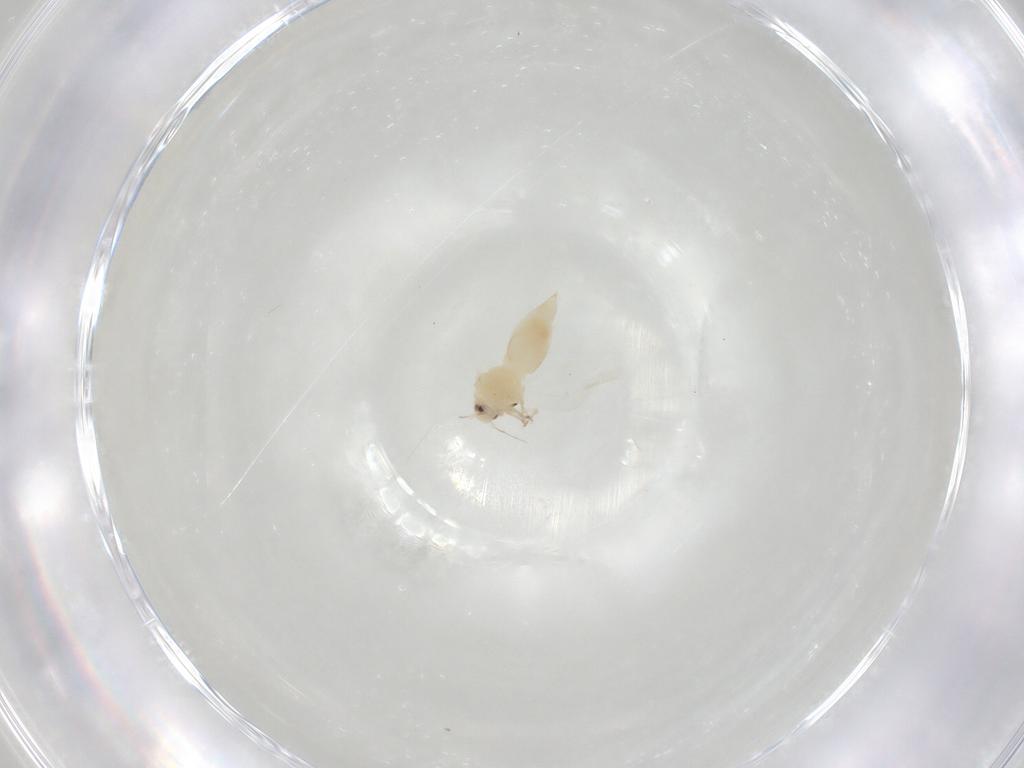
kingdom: Animalia
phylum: Arthropoda
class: Insecta
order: Hemiptera
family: Aleyrodidae
